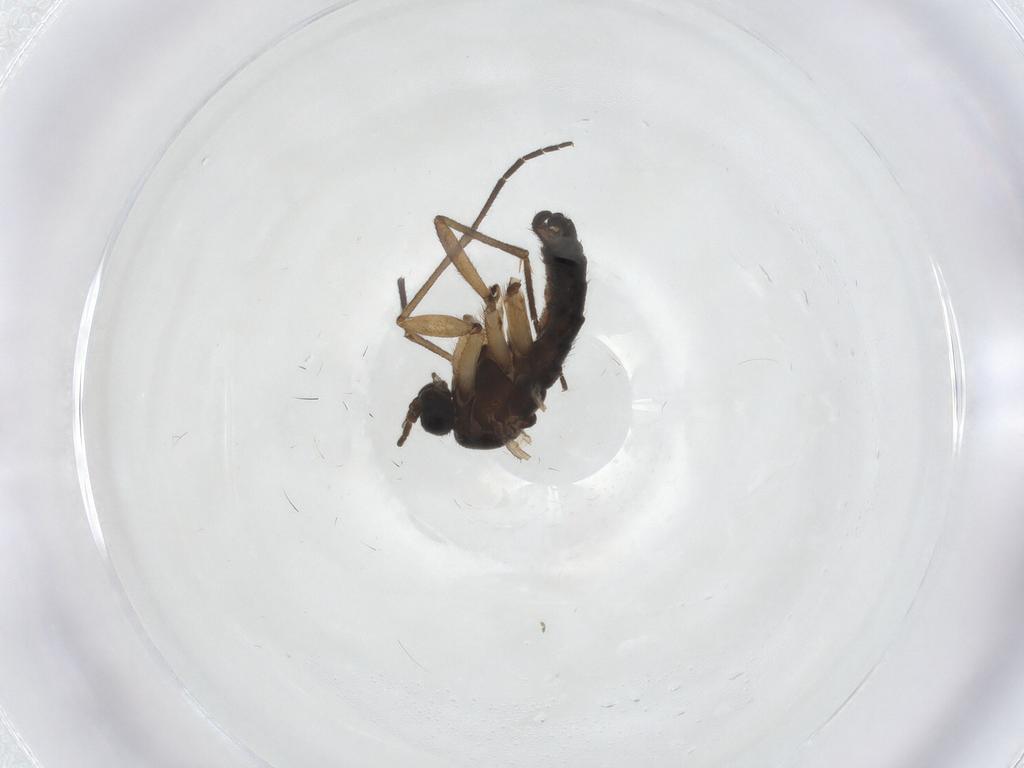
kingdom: Animalia
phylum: Arthropoda
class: Insecta
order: Diptera
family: Sciaridae
